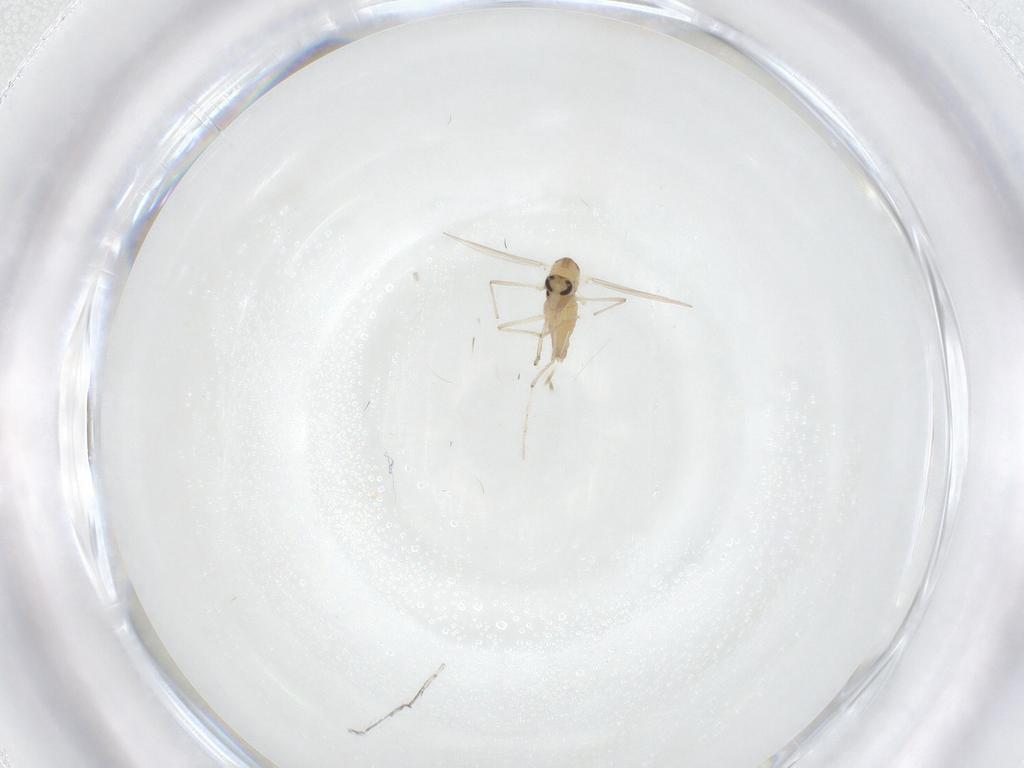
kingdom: Animalia
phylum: Arthropoda
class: Insecta
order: Diptera
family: Chironomidae
